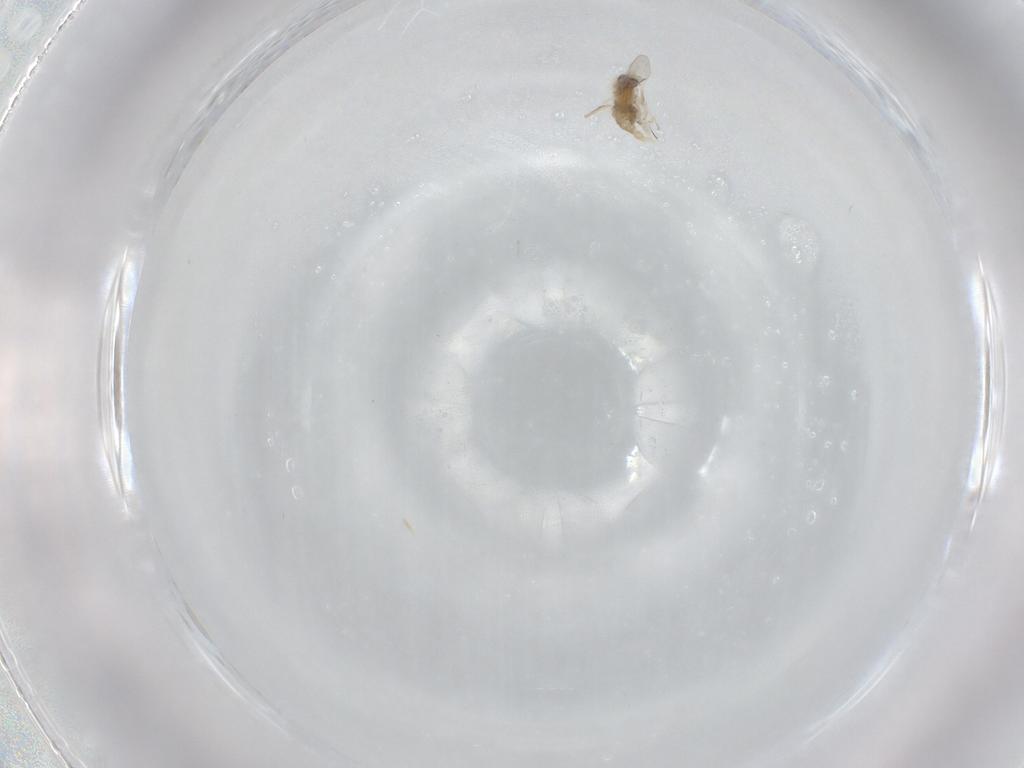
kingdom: Animalia
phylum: Arthropoda
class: Insecta
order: Diptera
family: Cecidomyiidae
